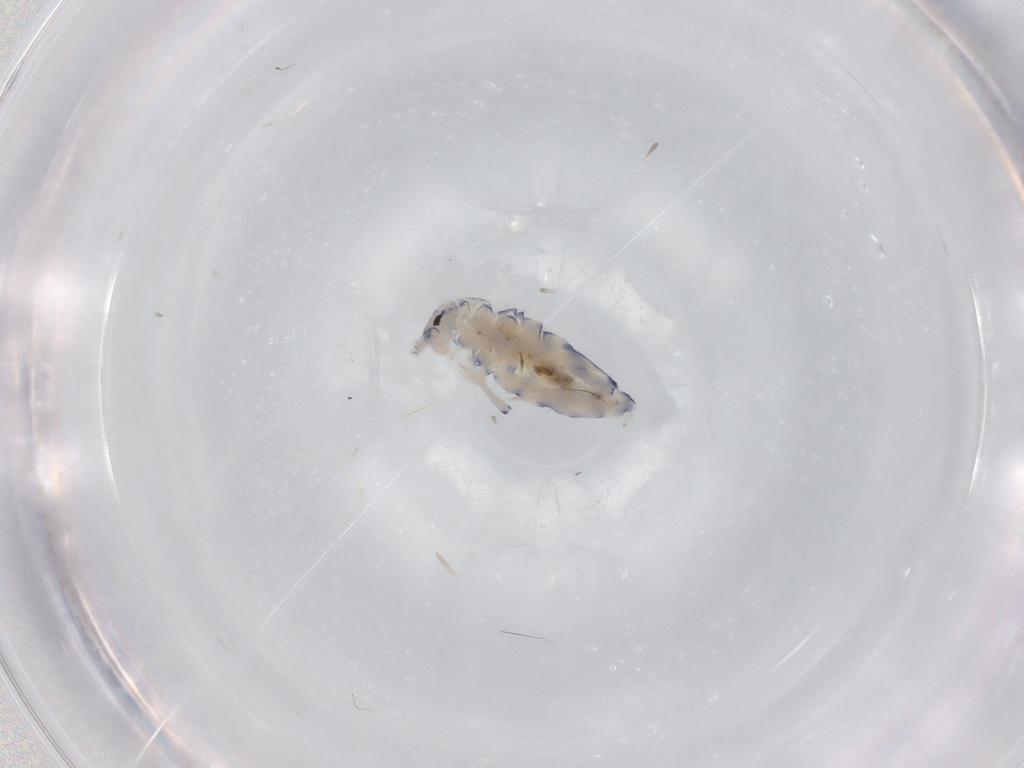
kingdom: Animalia
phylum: Arthropoda
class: Collembola
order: Entomobryomorpha
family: Entomobryidae
